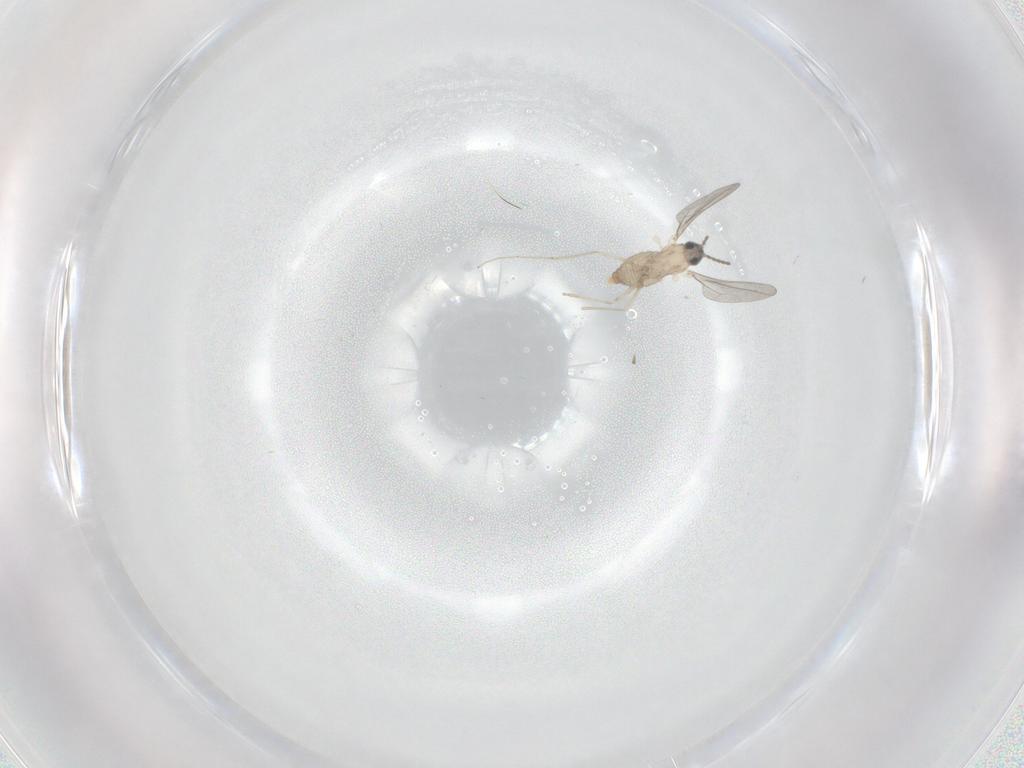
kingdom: Animalia
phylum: Arthropoda
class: Insecta
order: Diptera
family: Cecidomyiidae
